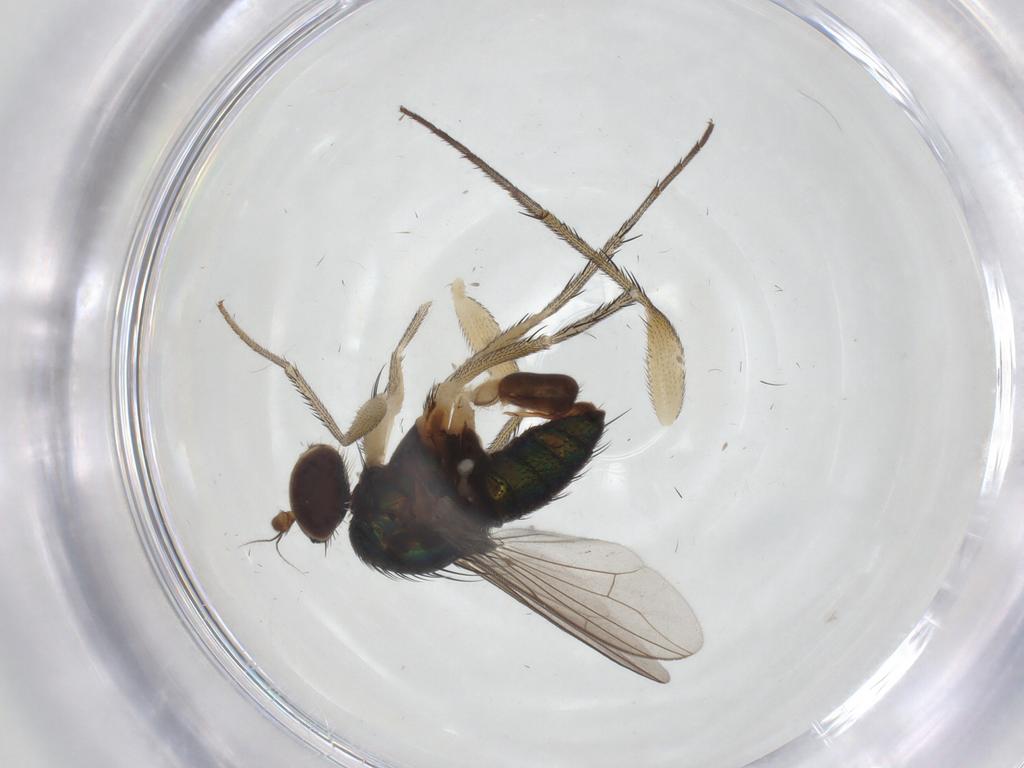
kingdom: Animalia
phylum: Arthropoda
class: Insecta
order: Diptera
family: Dolichopodidae
